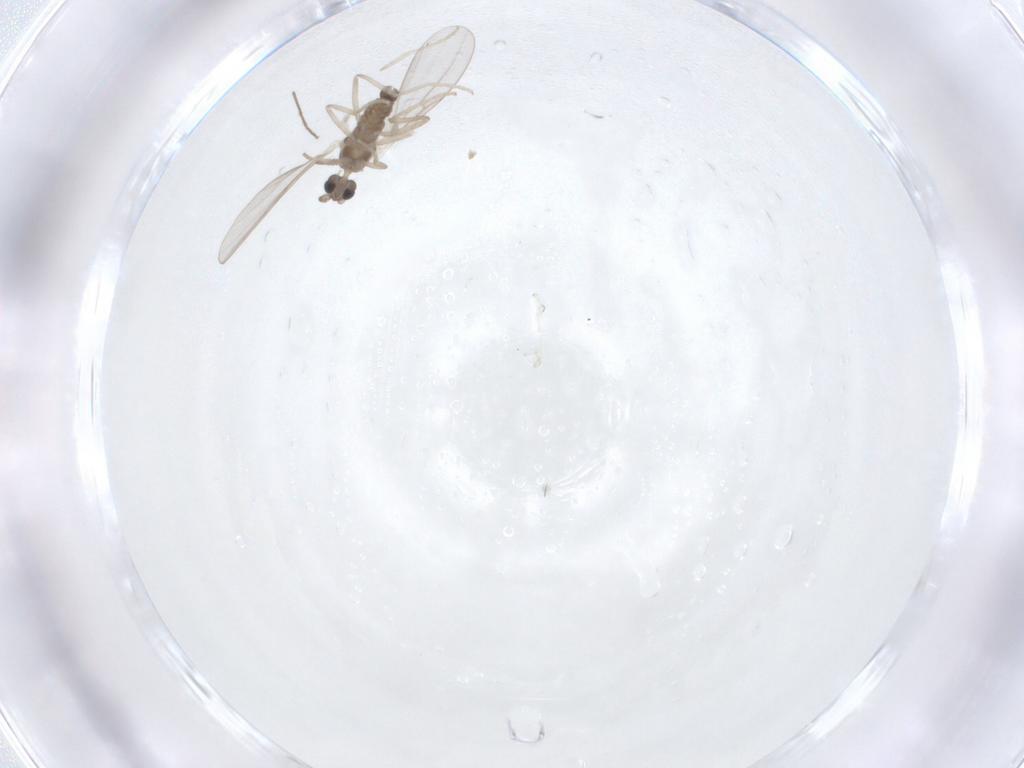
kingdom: Animalia
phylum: Arthropoda
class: Insecta
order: Diptera
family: Chironomidae
